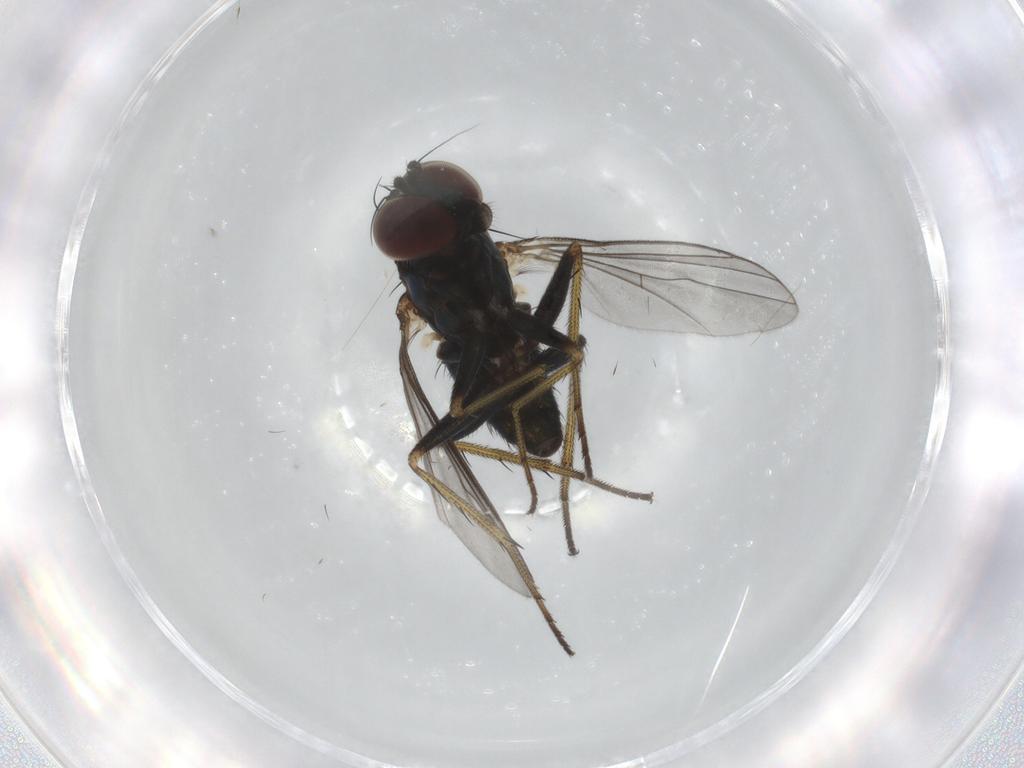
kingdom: Animalia
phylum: Arthropoda
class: Insecta
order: Diptera
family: Dolichopodidae
